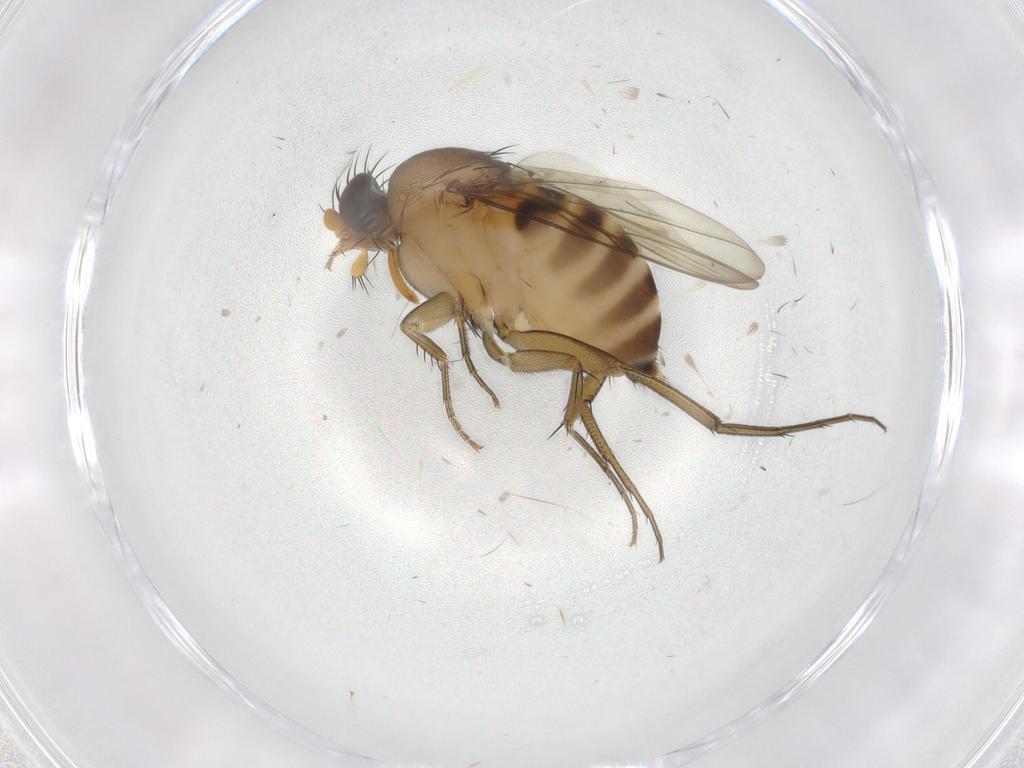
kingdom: Animalia
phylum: Arthropoda
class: Insecta
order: Diptera
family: Phoridae
